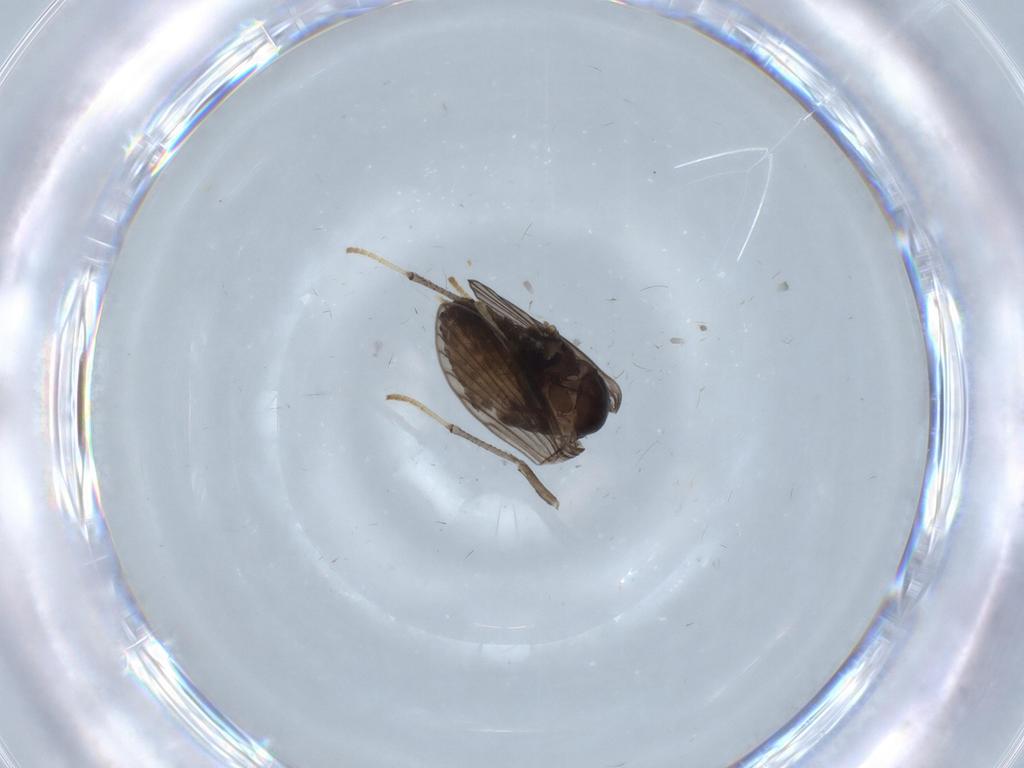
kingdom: Animalia
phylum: Arthropoda
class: Insecta
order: Diptera
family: Psychodidae
